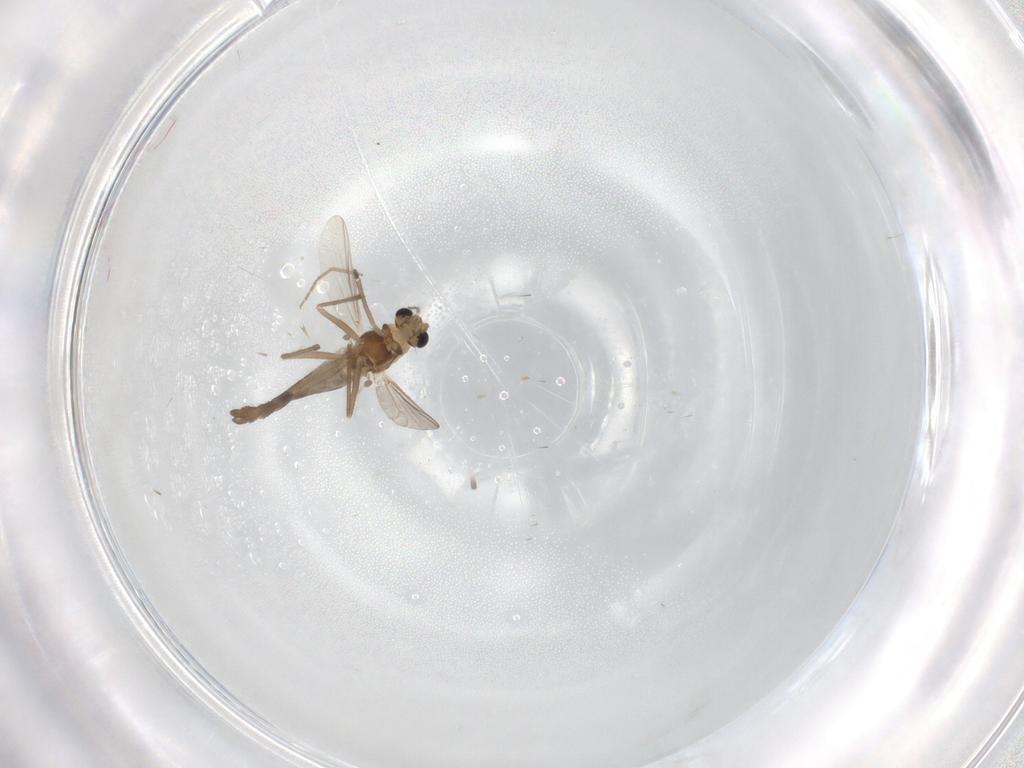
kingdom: Animalia
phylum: Arthropoda
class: Insecta
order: Diptera
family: Chironomidae
